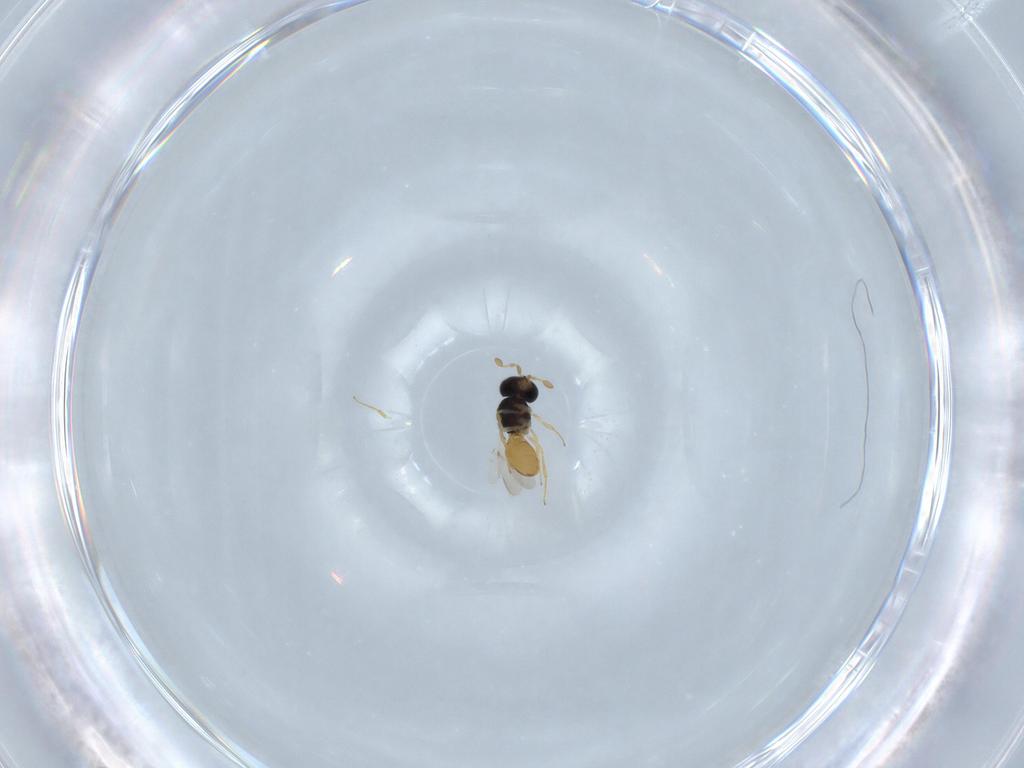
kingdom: Animalia
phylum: Arthropoda
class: Insecta
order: Hymenoptera
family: Scelionidae
